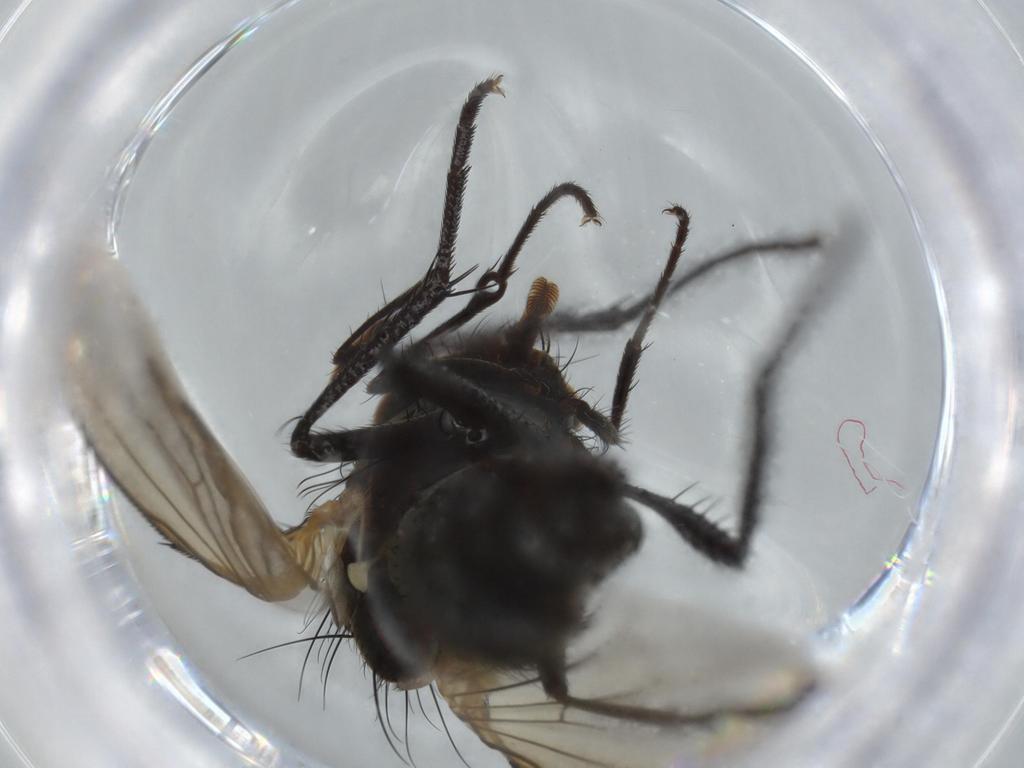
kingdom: Animalia
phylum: Arthropoda
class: Insecta
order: Diptera
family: Anthomyiidae
